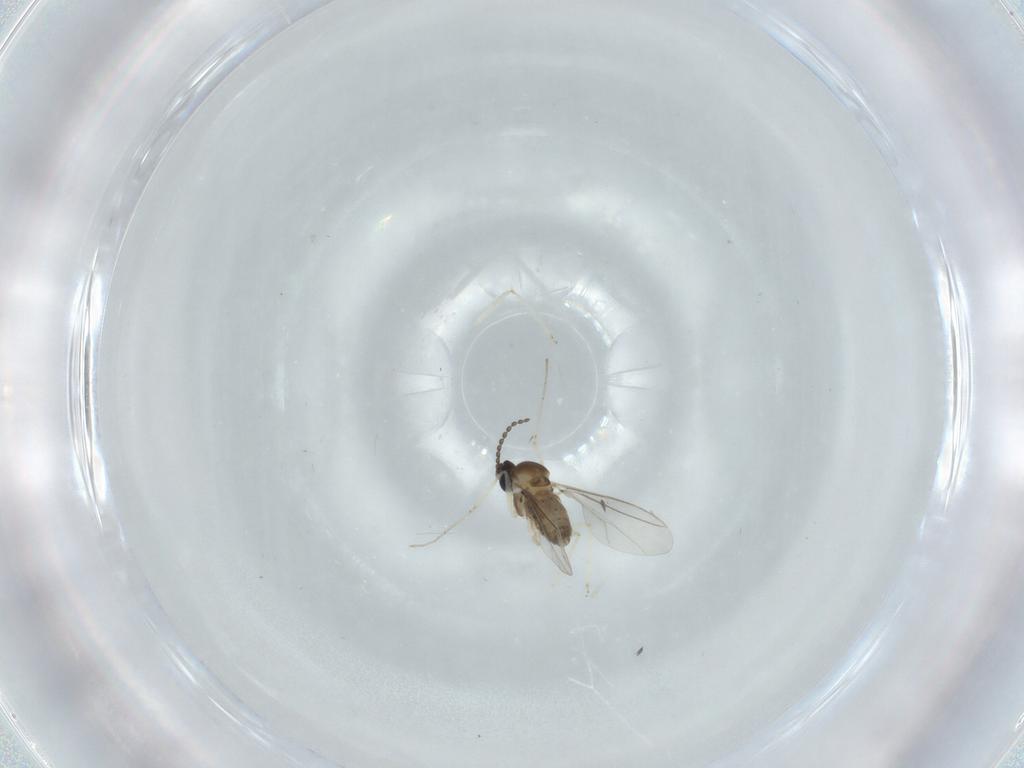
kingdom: Animalia
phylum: Arthropoda
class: Insecta
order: Diptera
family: Cecidomyiidae
